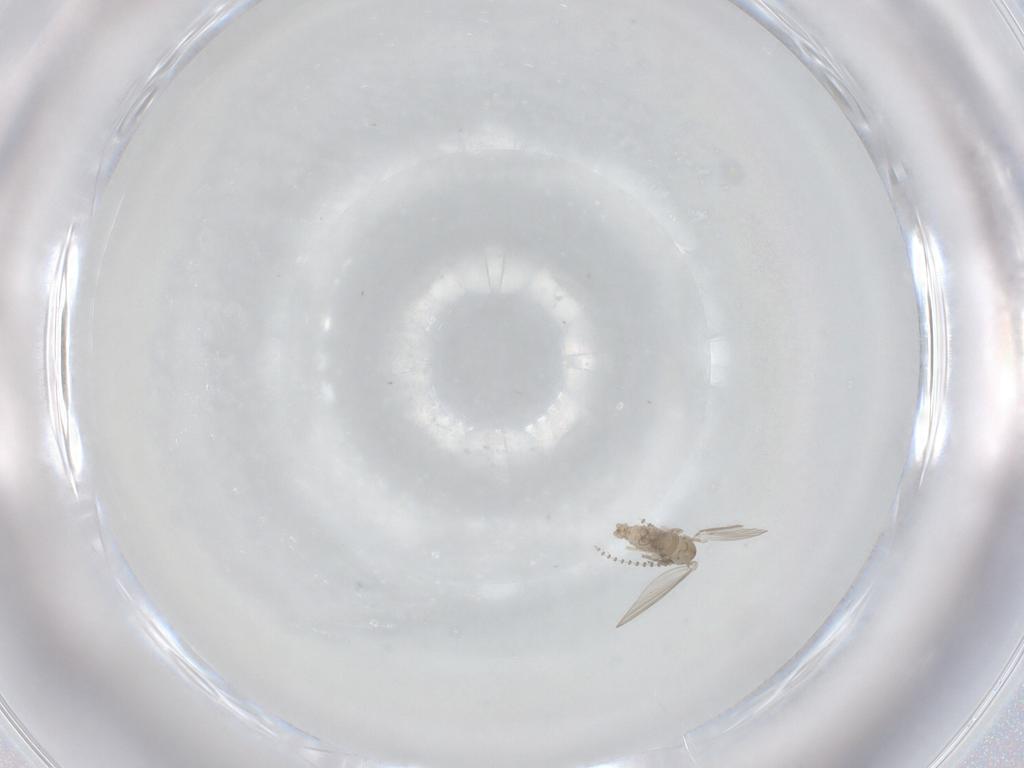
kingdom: Animalia
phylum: Arthropoda
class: Insecta
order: Diptera
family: Psychodidae
